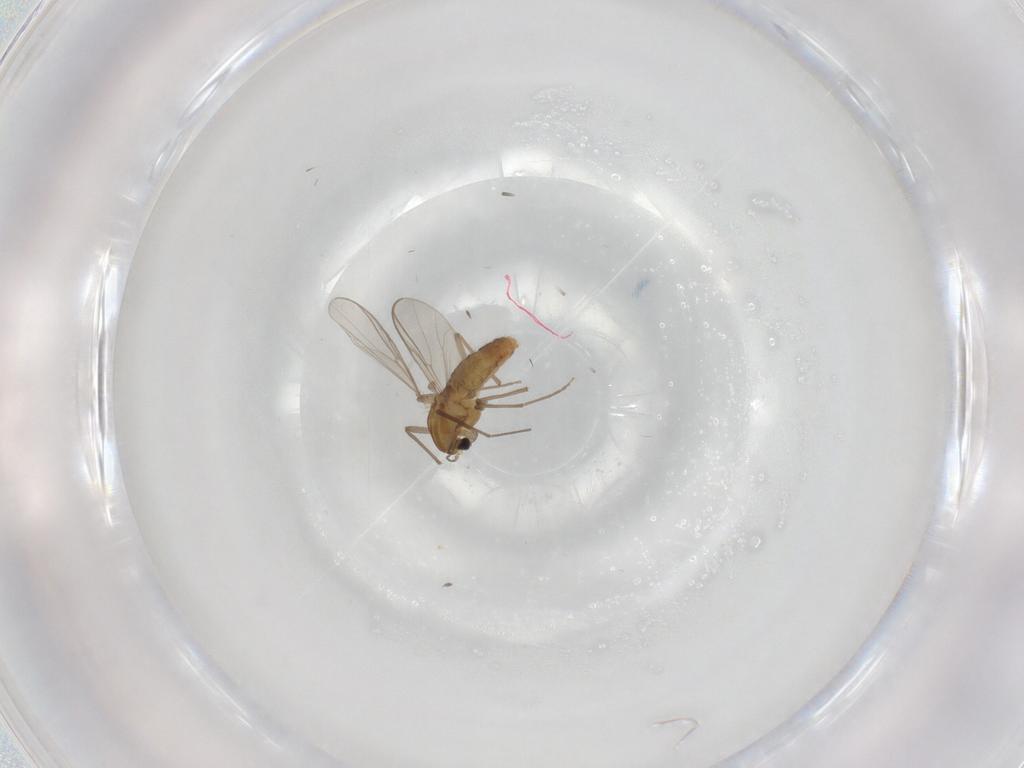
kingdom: Animalia
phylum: Arthropoda
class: Insecta
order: Diptera
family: Chironomidae
